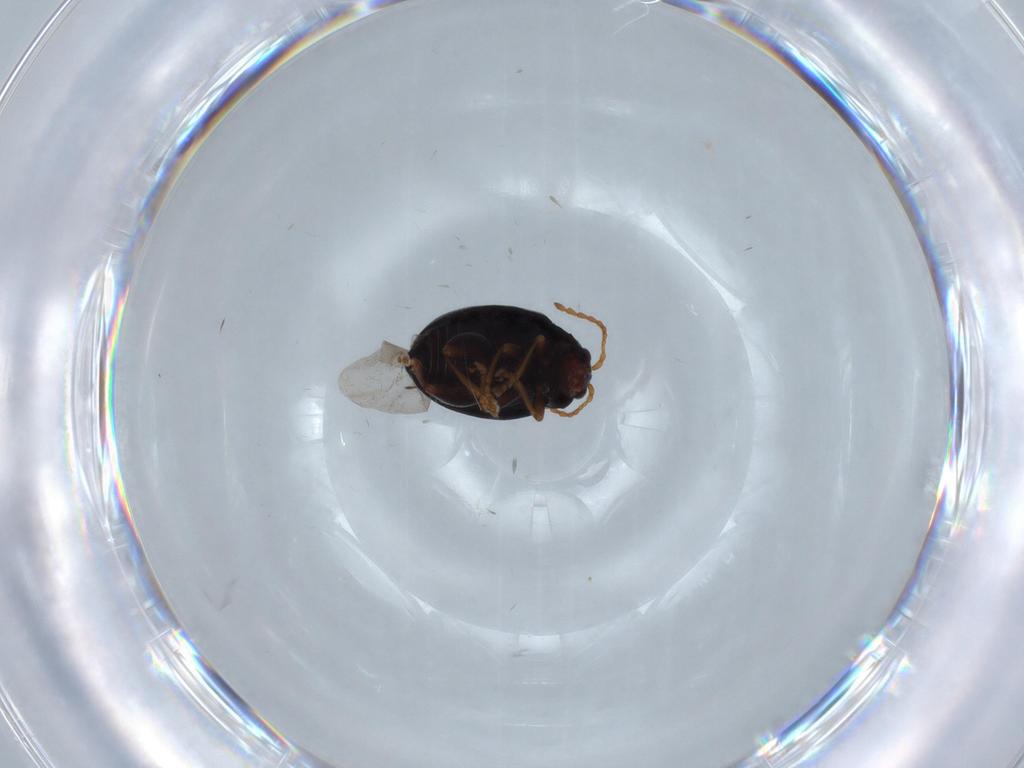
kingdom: Animalia
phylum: Arthropoda
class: Insecta
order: Coleoptera
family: Chrysomelidae
